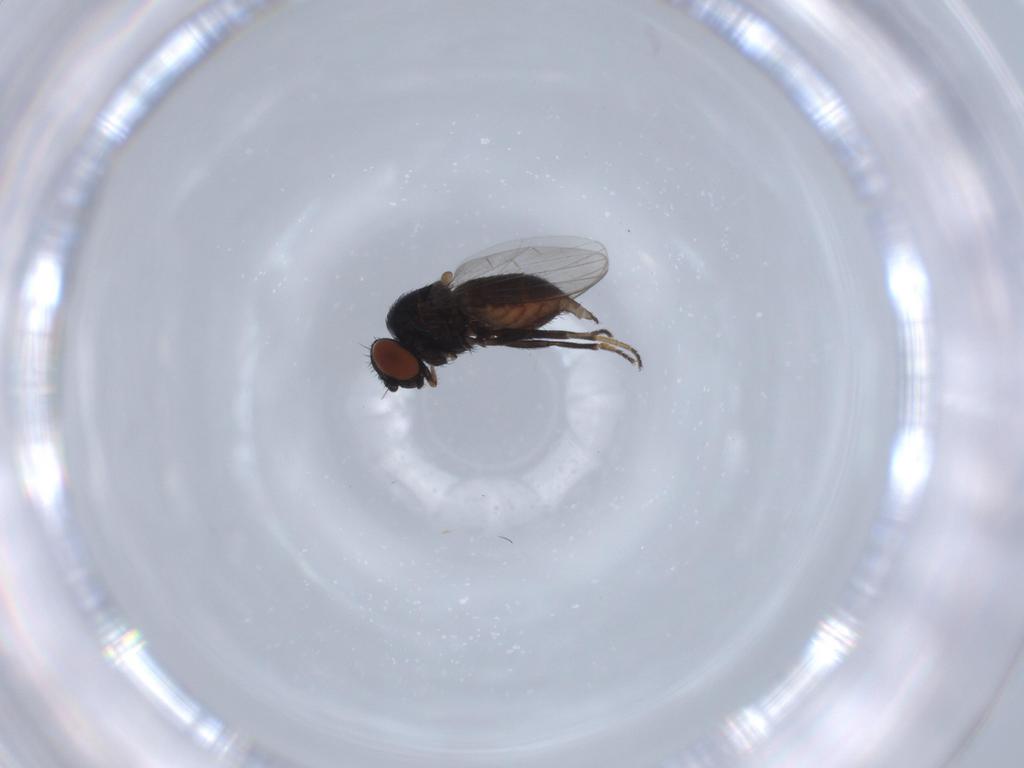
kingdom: Animalia
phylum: Arthropoda
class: Insecta
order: Diptera
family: Milichiidae
